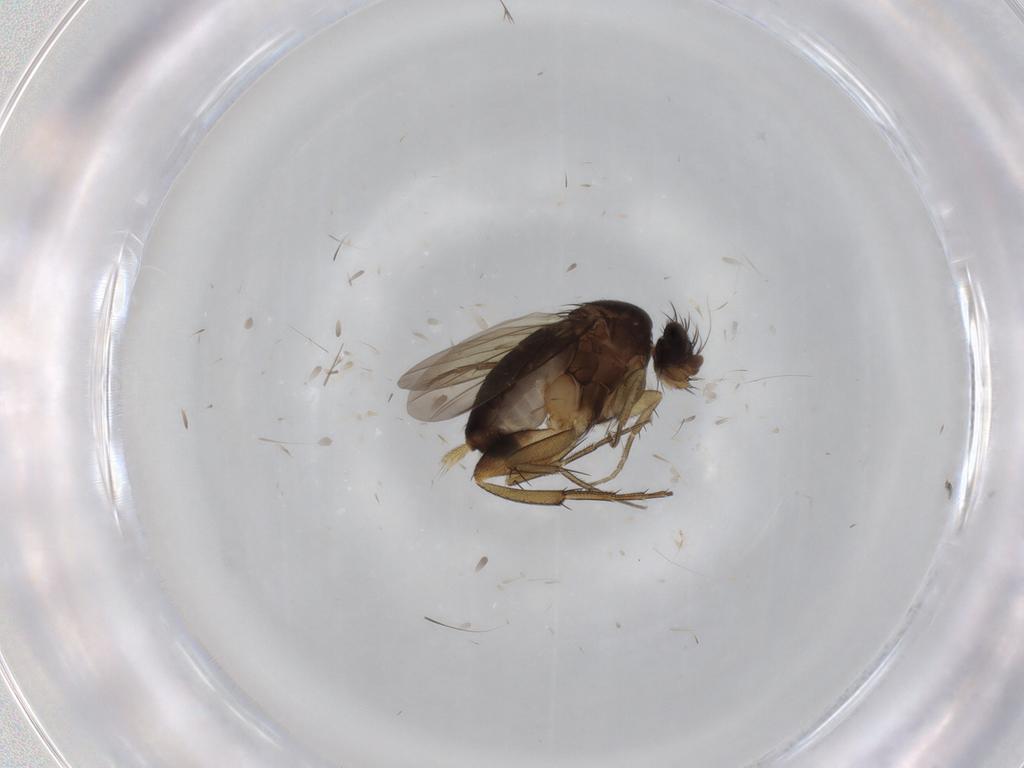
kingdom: Animalia
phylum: Arthropoda
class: Insecta
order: Diptera
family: Phoridae
